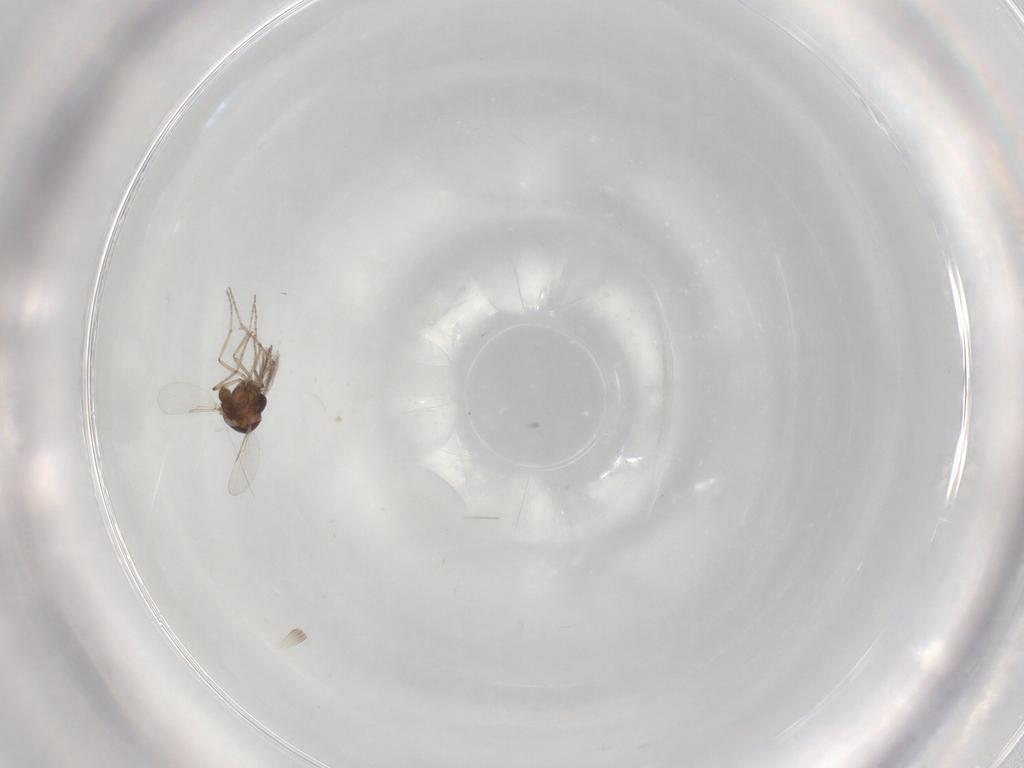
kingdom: Animalia
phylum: Arthropoda
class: Insecta
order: Diptera
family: Ceratopogonidae
